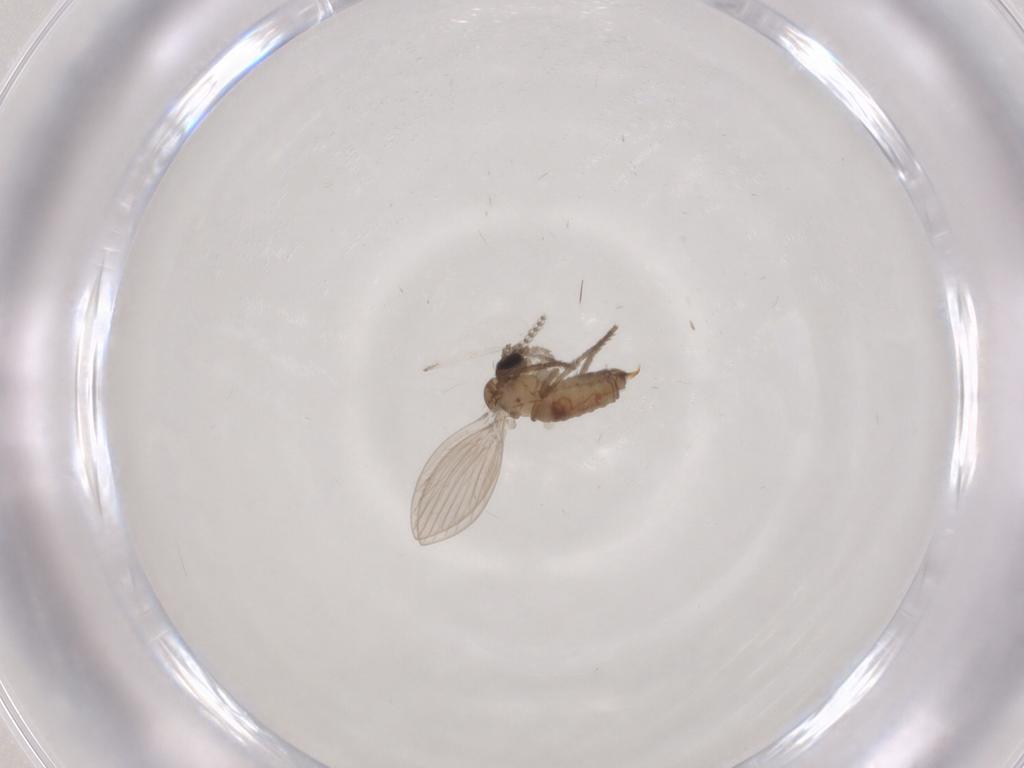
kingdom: Animalia
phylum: Arthropoda
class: Insecta
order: Diptera
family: Psychodidae
